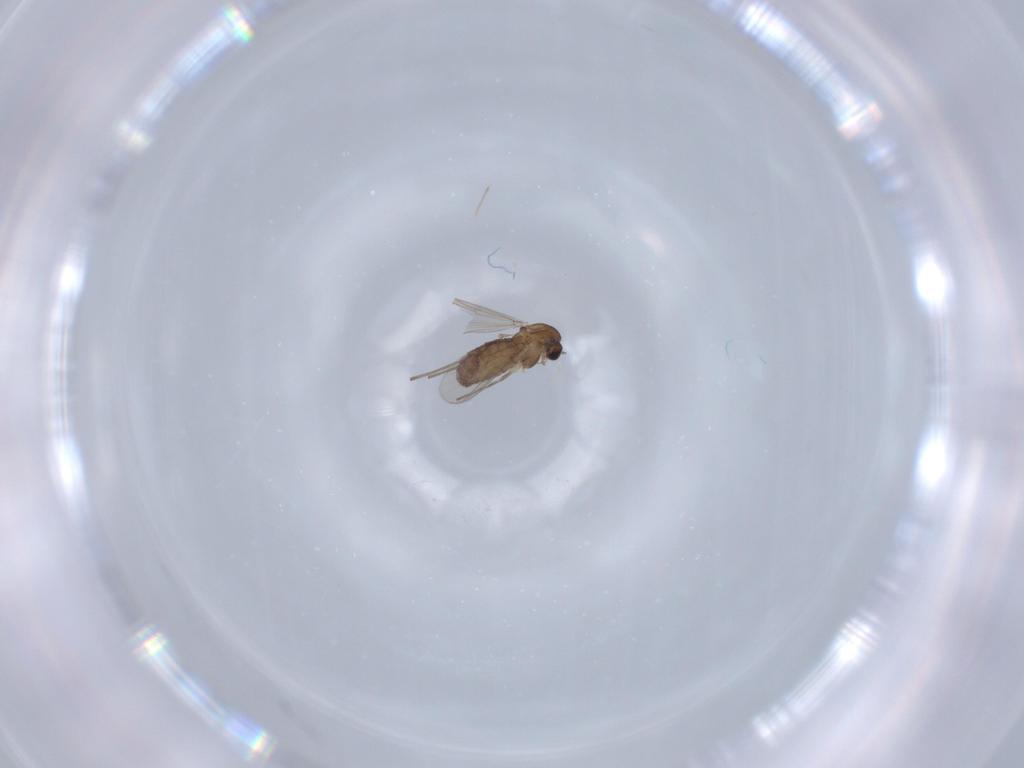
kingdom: Animalia
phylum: Arthropoda
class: Insecta
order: Diptera
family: Chironomidae
